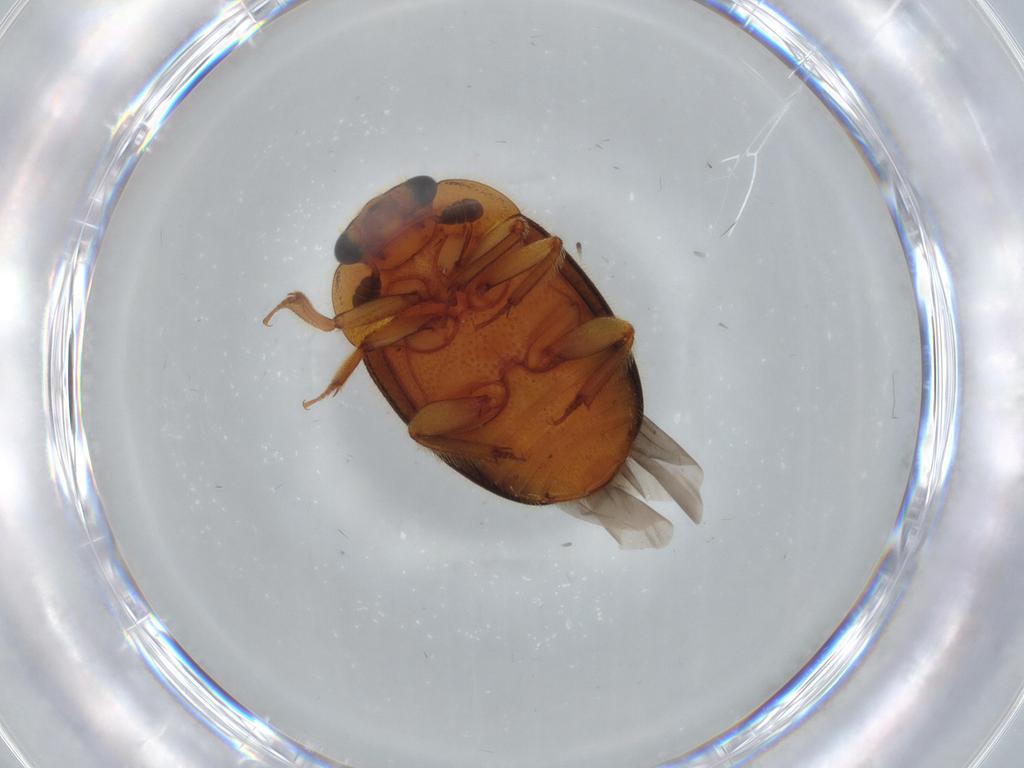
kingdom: Animalia
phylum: Arthropoda
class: Insecta
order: Coleoptera
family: Nitidulidae
